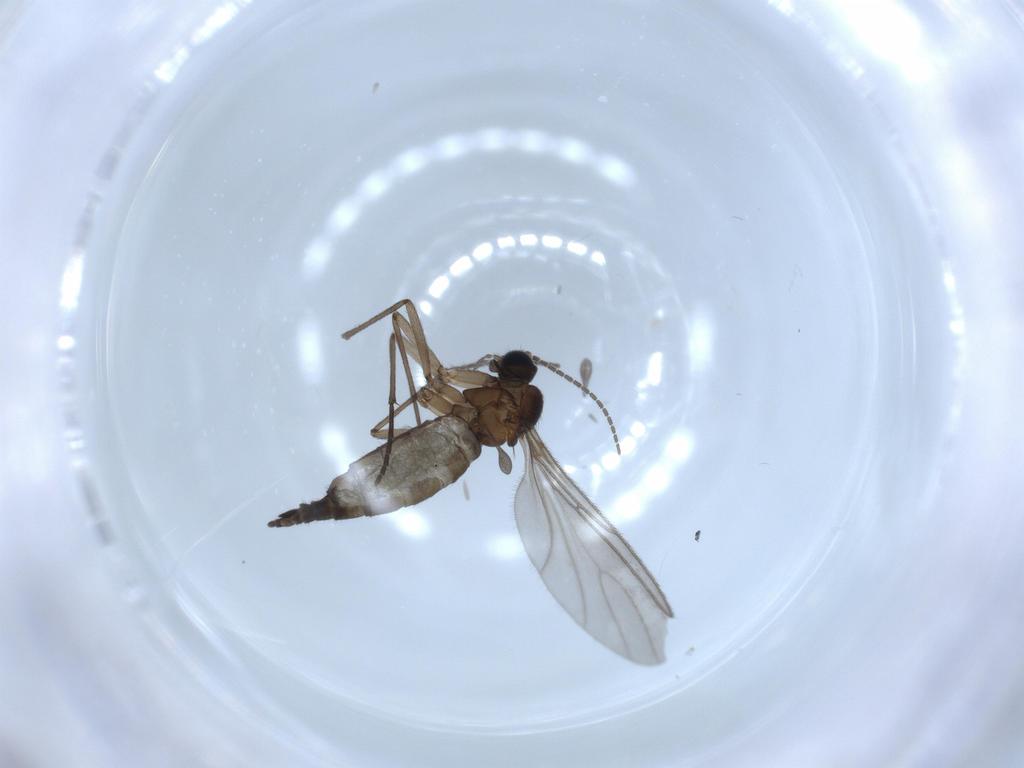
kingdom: Animalia
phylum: Arthropoda
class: Insecta
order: Diptera
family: Sciaridae
